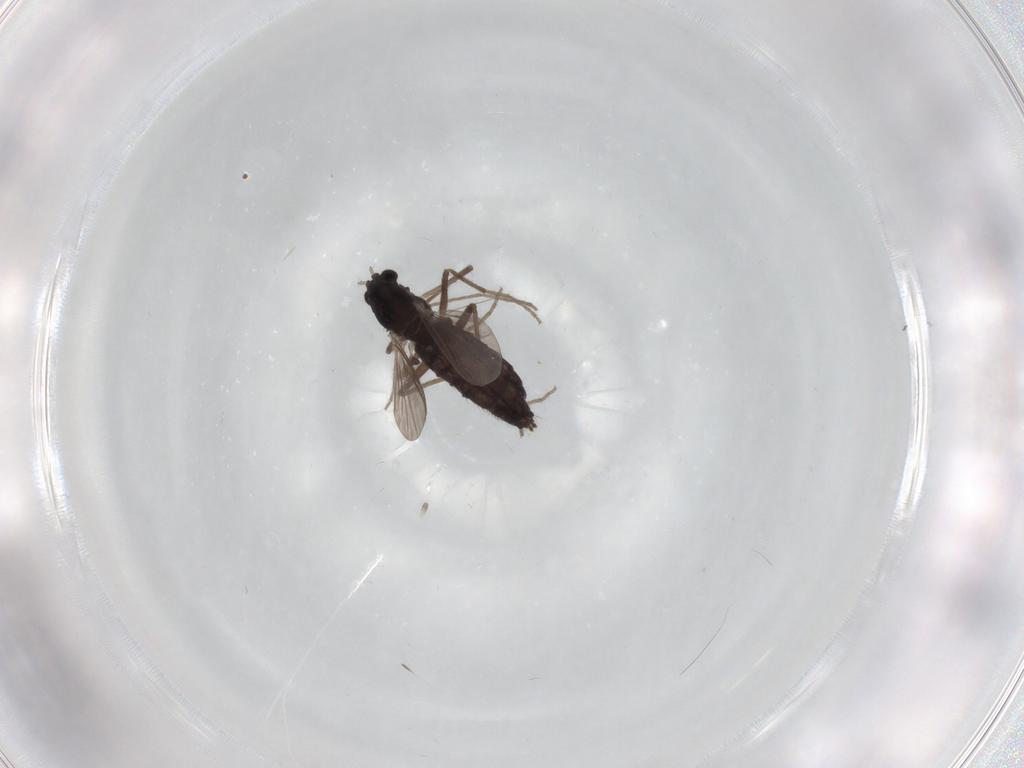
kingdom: Animalia
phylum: Arthropoda
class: Insecta
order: Diptera
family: Chironomidae
